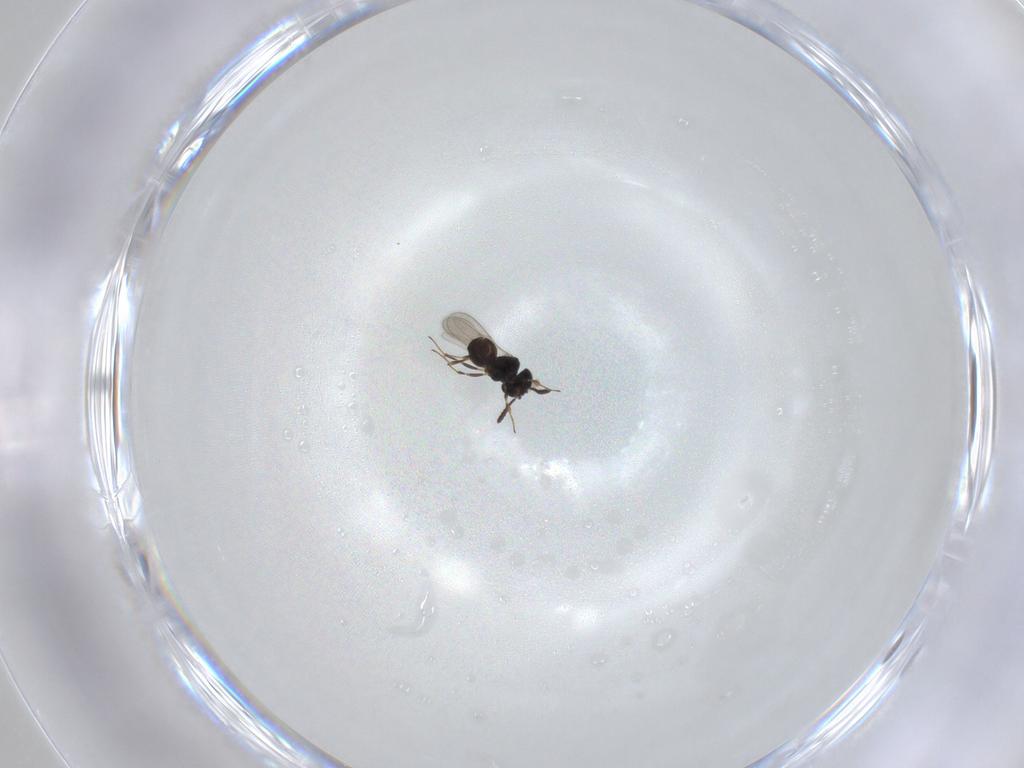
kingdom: Animalia
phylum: Arthropoda
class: Insecta
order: Hymenoptera
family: Scelionidae
